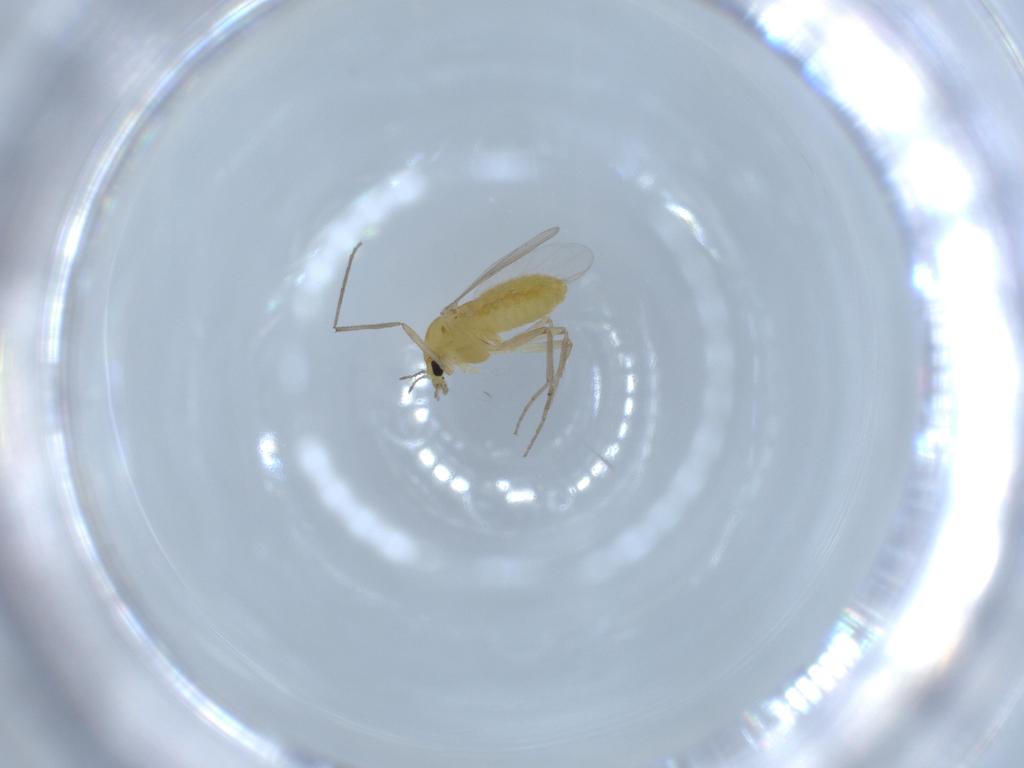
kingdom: Animalia
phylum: Arthropoda
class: Insecta
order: Diptera
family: Chironomidae
